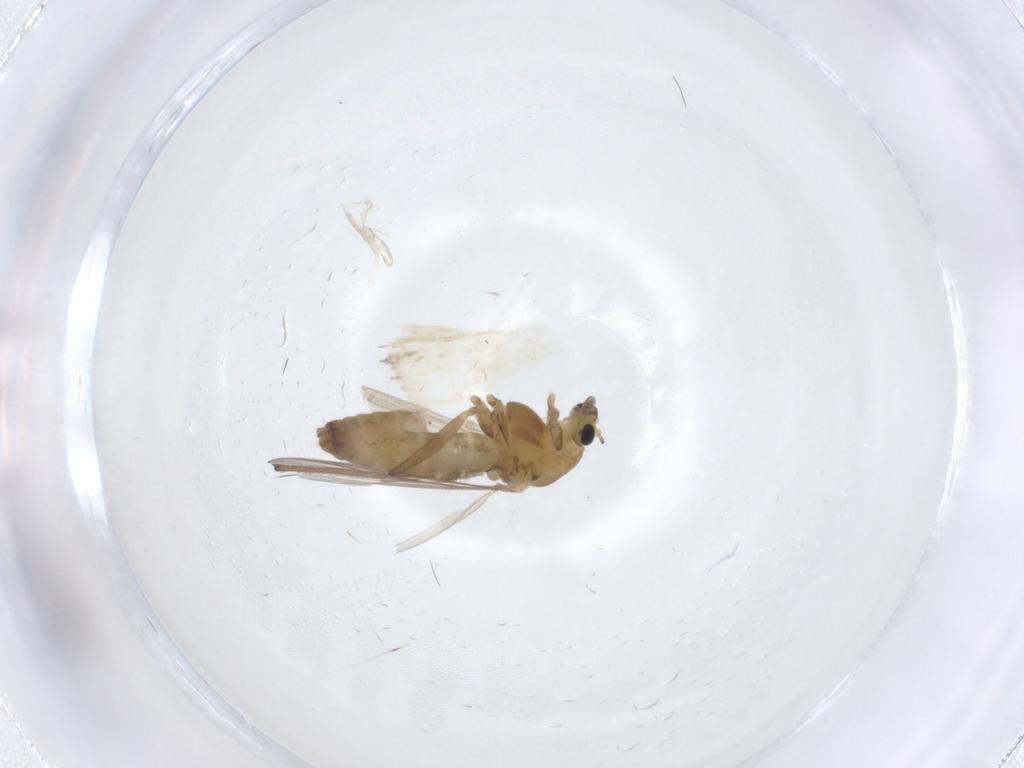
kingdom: Animalia
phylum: Arthropoda
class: Insecta
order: Diptera
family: Chironomidae
